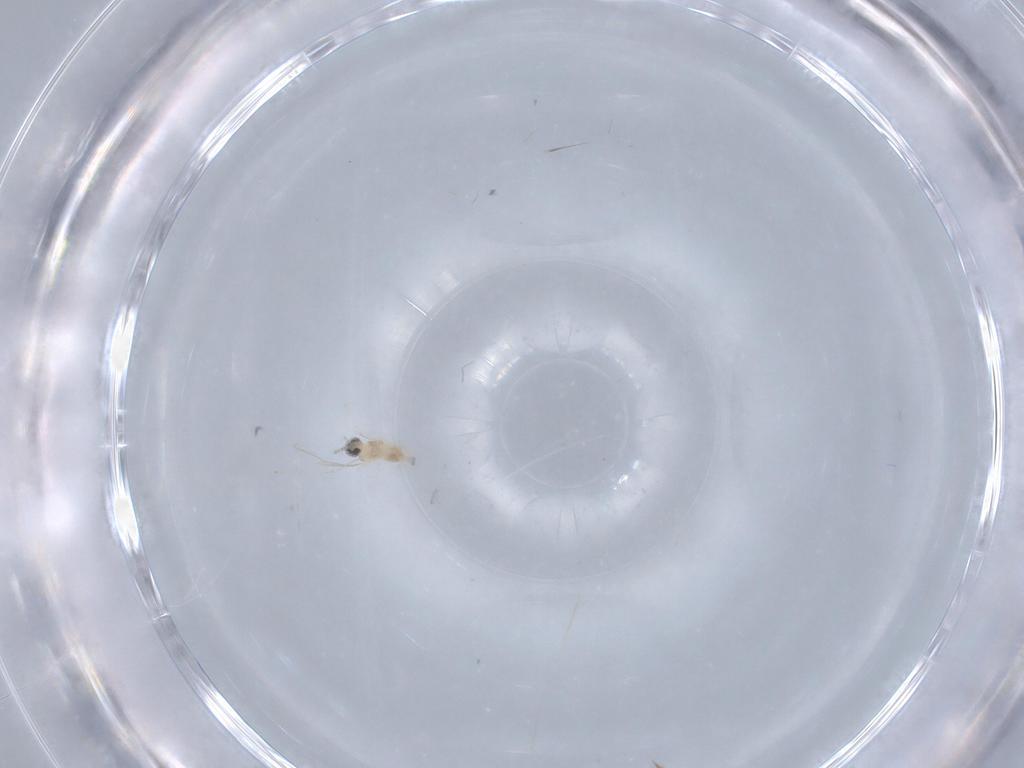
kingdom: Animalia
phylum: Arthropoda
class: Insecta
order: Diptera
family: Cecidomyiidae
